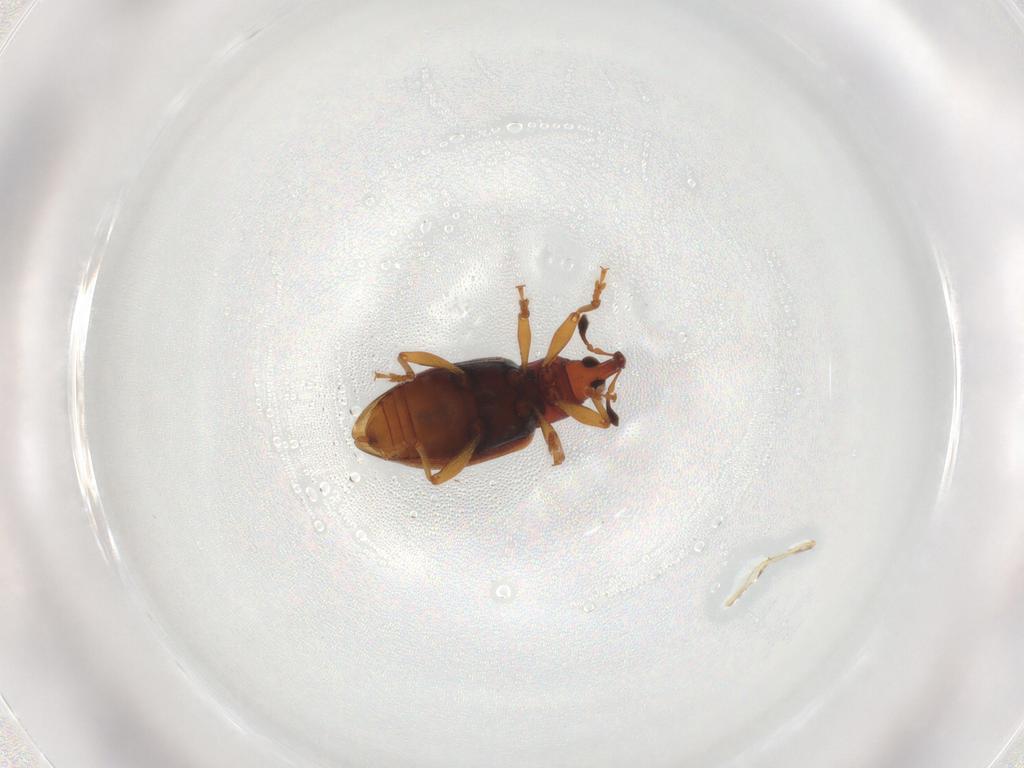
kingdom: Animalia
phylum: Arthropoda
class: Insecta
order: Coleoptera
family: Curculionidae
